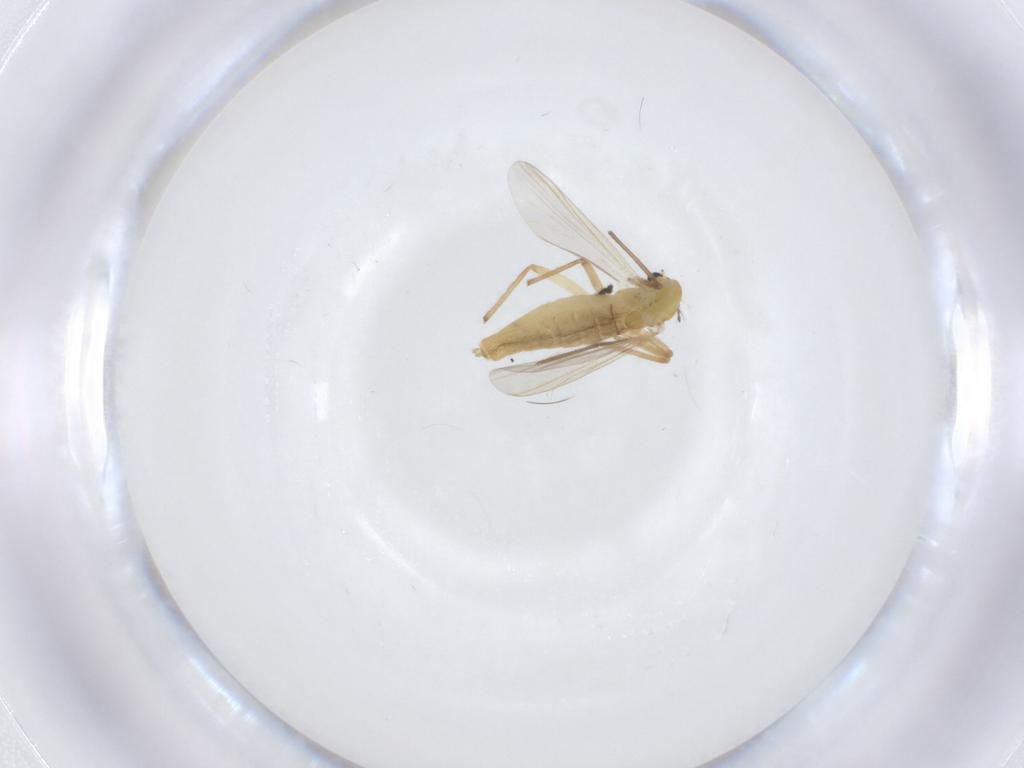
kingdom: Animalia
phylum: Arthropoda
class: Insecta
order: Diptera
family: Chironomidae
